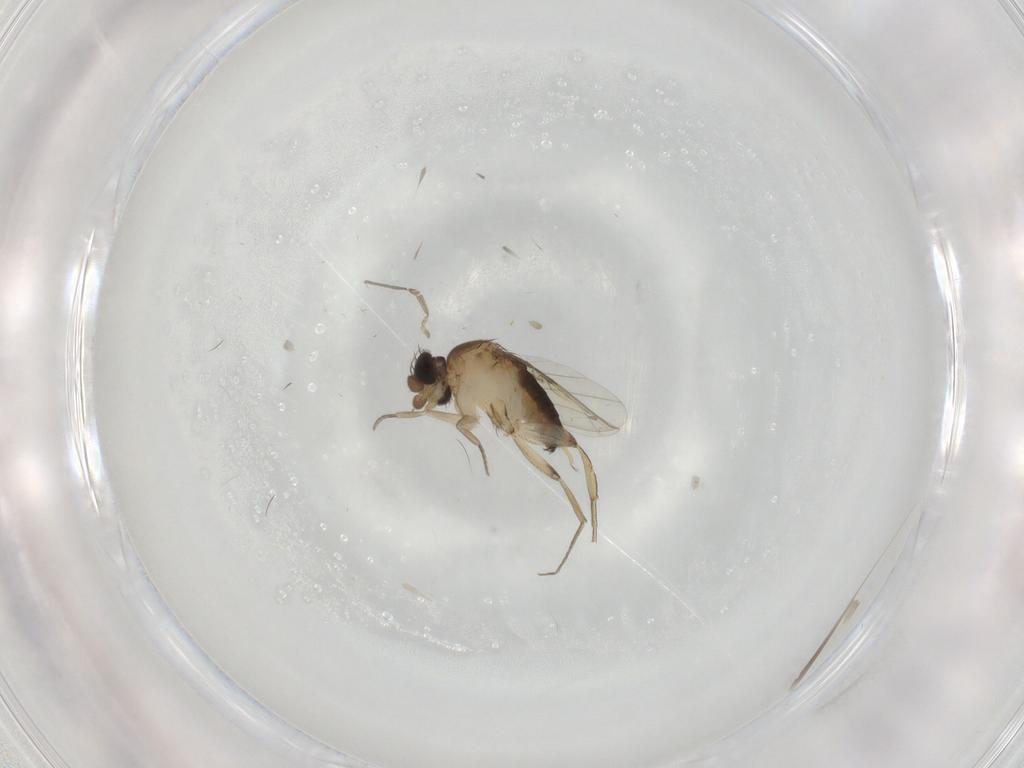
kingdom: Animalia
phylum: Arthropoda
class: Insecta
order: Diptera
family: Phoridae
